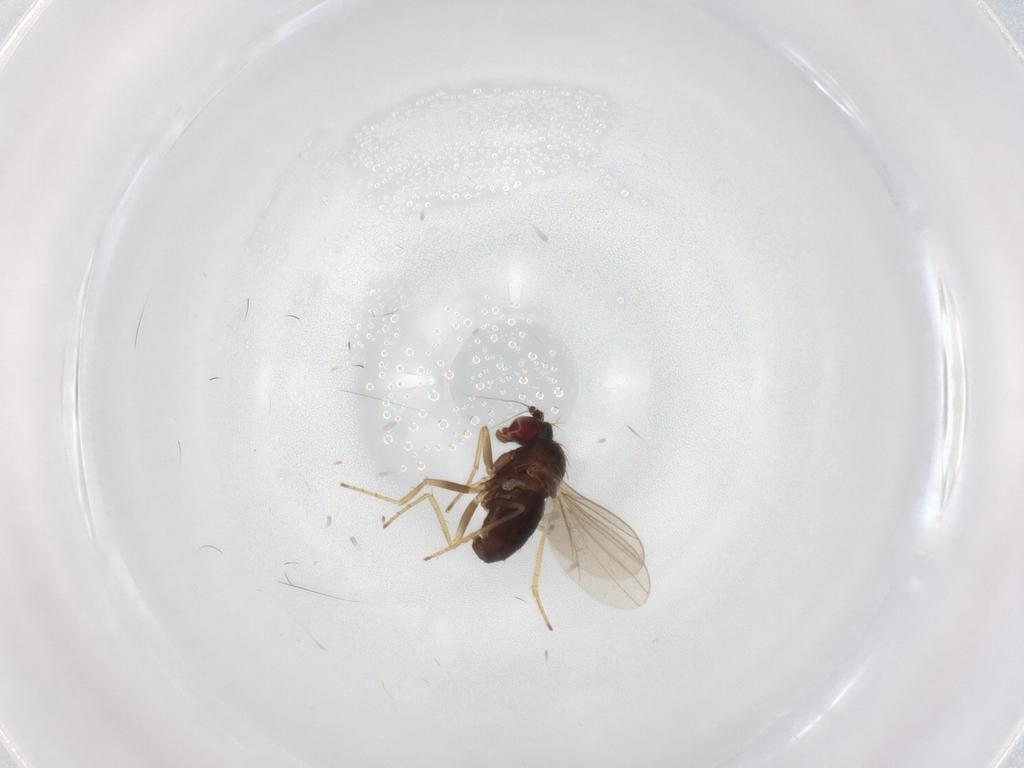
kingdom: Animalia
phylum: Arthropoda
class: Insecta
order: Diptera
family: Dolichopodidae
